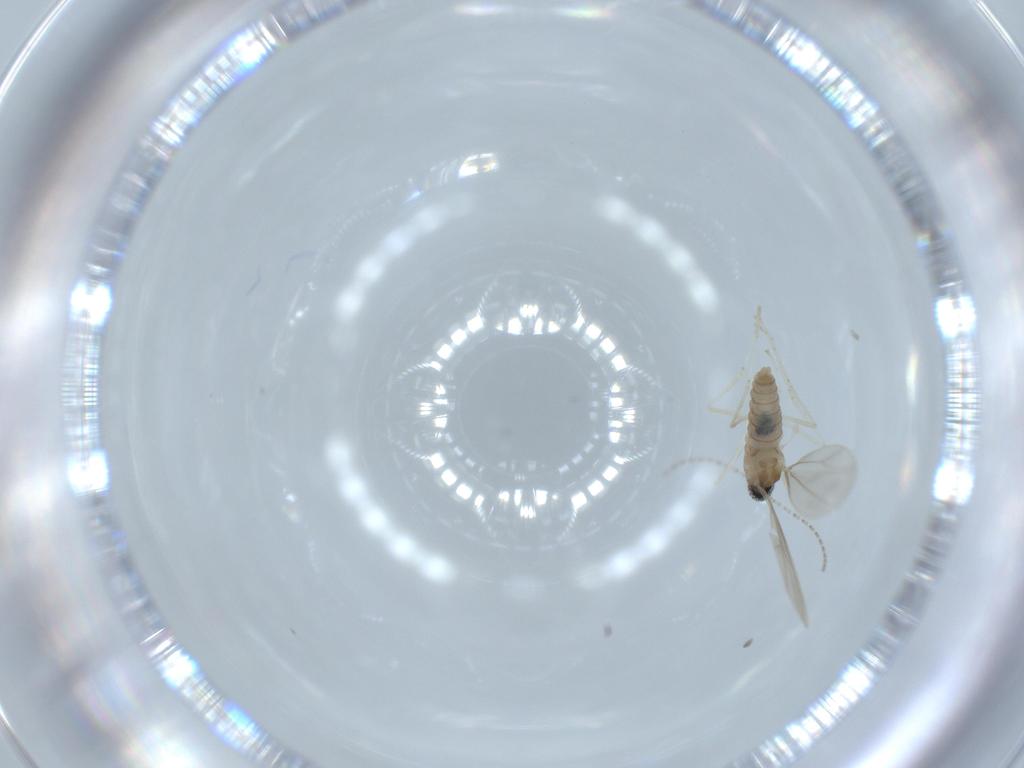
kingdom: Animalia
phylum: Arthropoda
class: Insecta
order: Diptera
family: Cecidomyiidae
